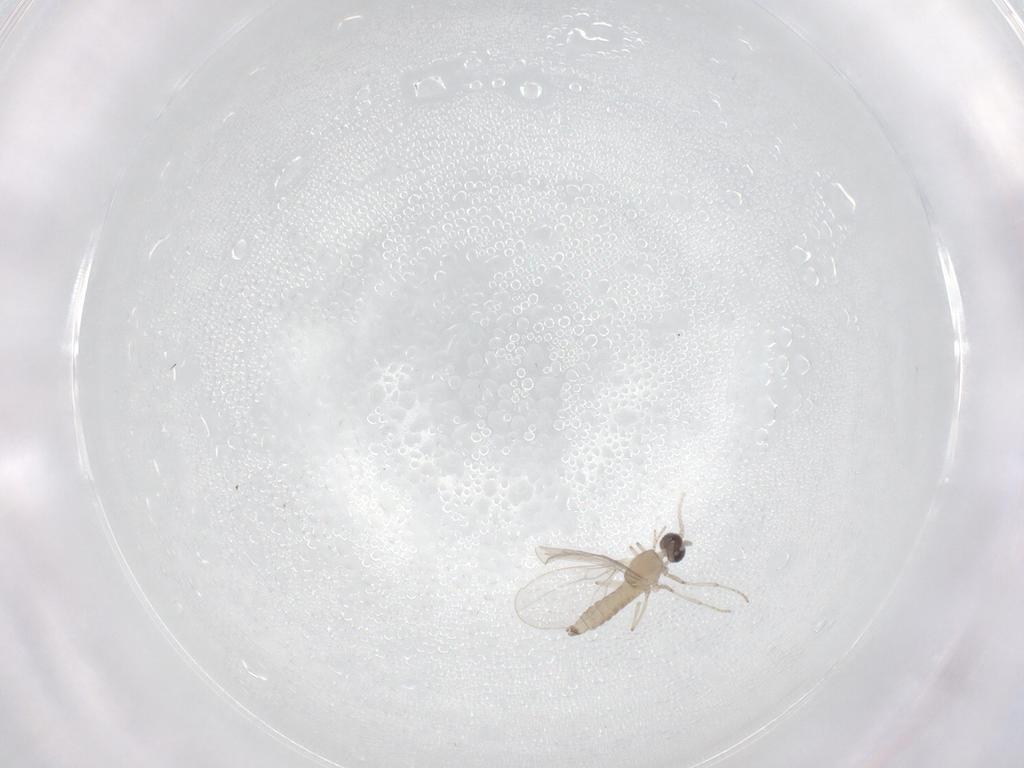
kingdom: Animalia
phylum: Arthropoda
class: Insecta
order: Diptera
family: Cecidomyiidae
